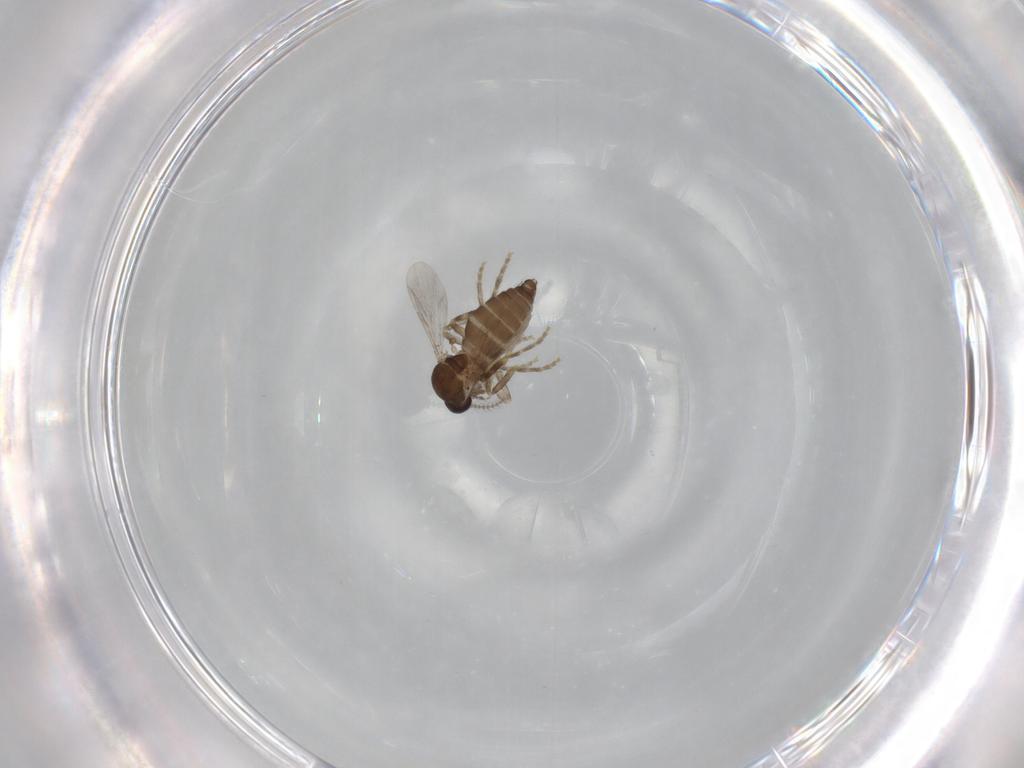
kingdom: Animalia
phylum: Arthropoda
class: Insecta
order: Diptera
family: Ceratopogonidae
